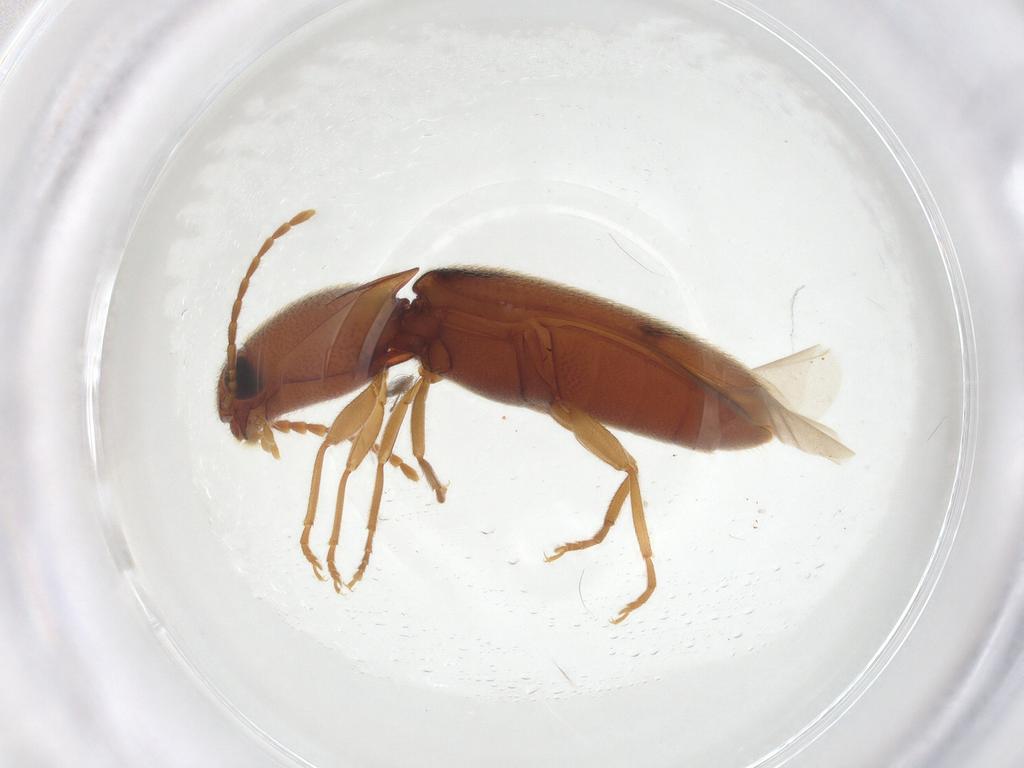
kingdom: Animalia
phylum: Arthropoda
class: Insecta
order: Coleoptera
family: Elateridae
